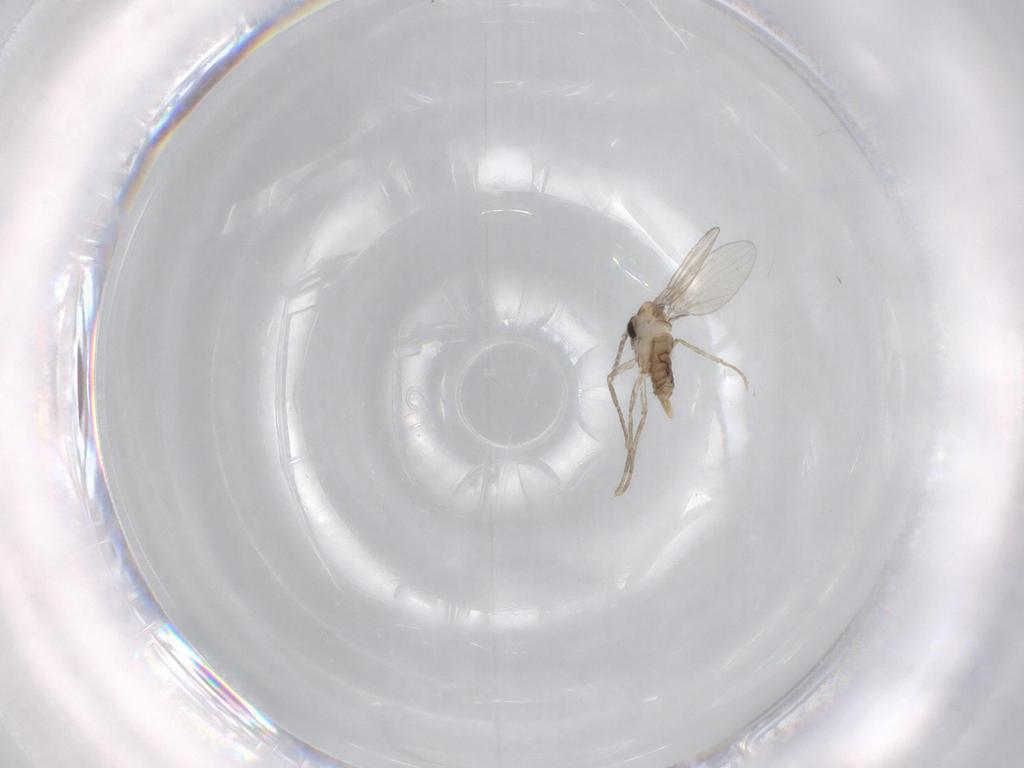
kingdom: Animalia
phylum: Arthropoda
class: Insecta
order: Diptera
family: Psychodidae
